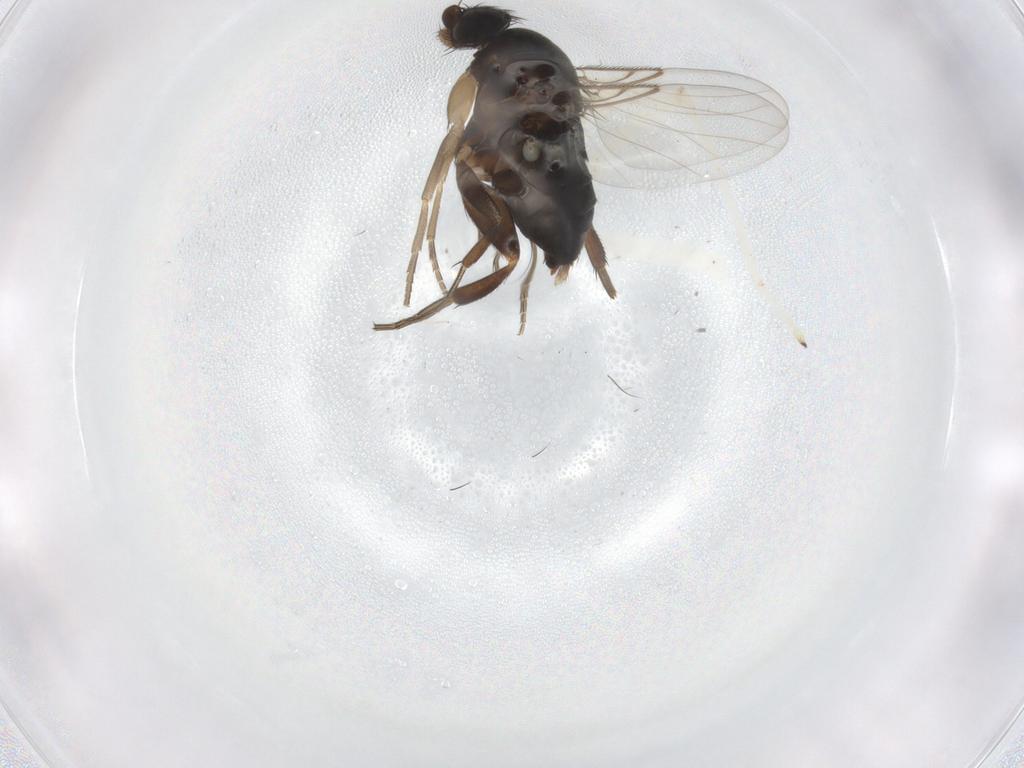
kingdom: Animalia
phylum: Arthropoda
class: Insecta
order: Diptera
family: Phoridae
